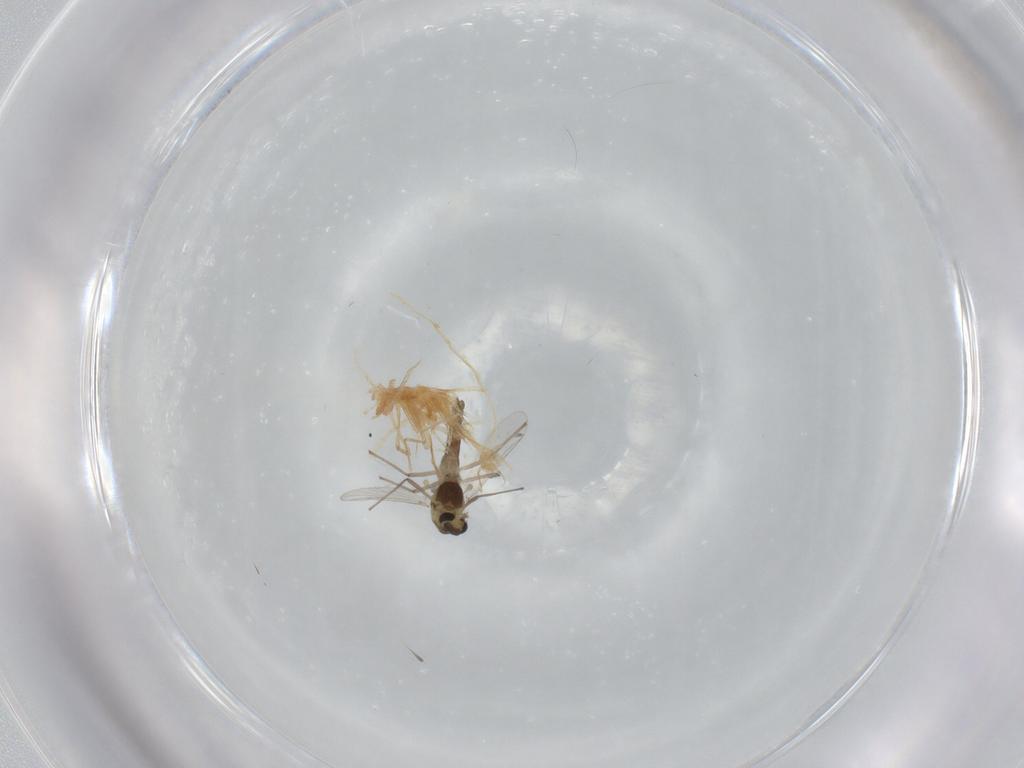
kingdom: Animalia
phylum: Arthropoda
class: Insecta
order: Diptera
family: Chironomidae
